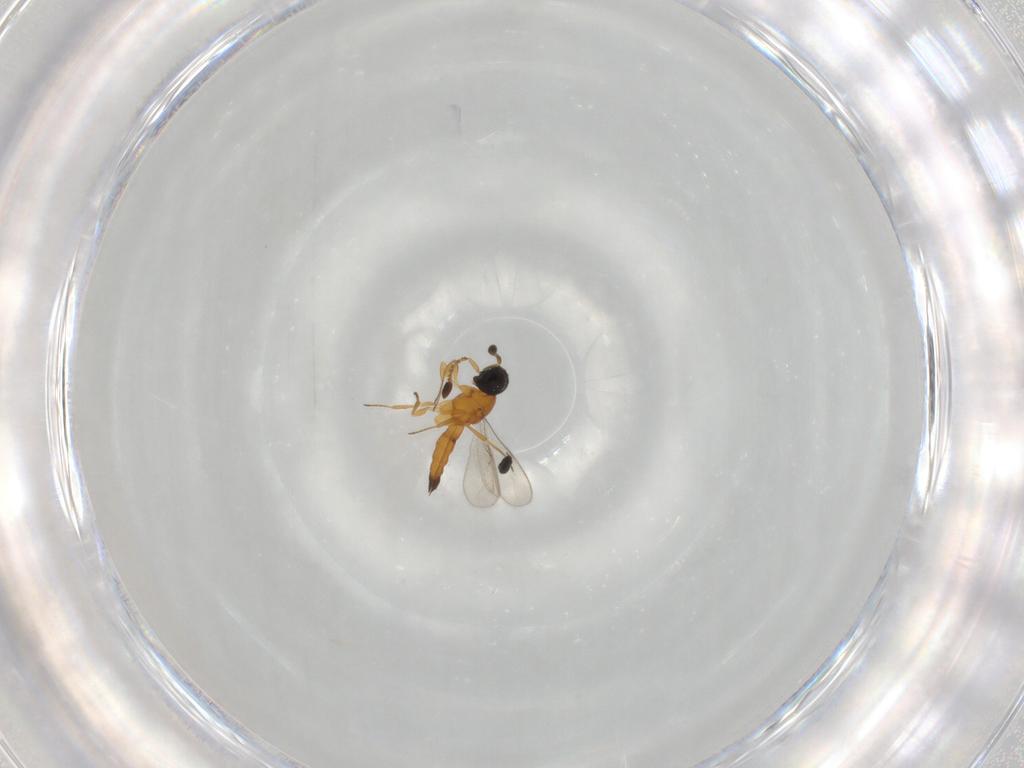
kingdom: Animalia
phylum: Arthropoda
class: Insecta
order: Hymenoptera
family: Scelionidae
